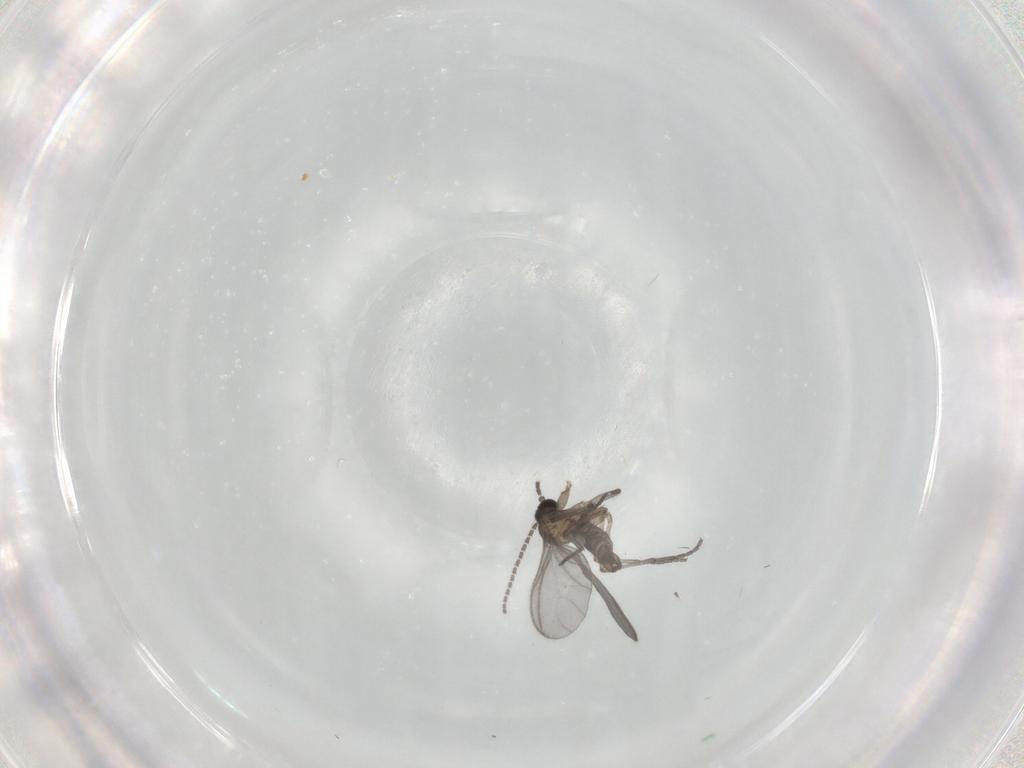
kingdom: Animalia
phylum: Arthropoda
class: Insecta
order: Diptera
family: Sciaridae
